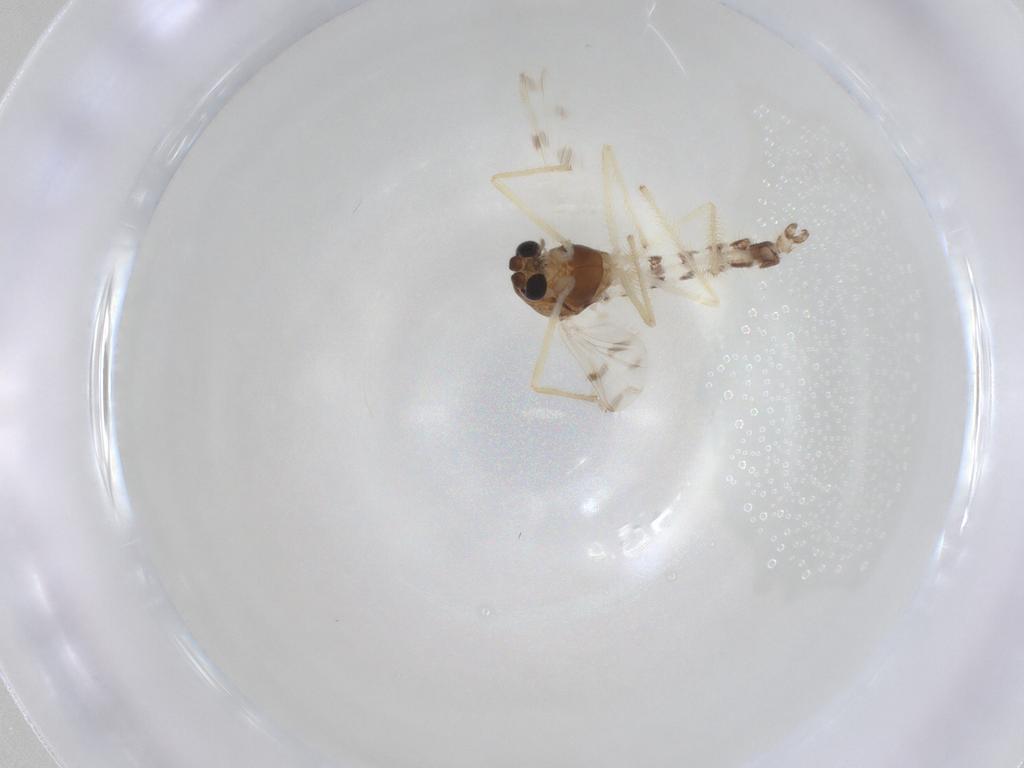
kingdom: Animalia
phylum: Arthropoda
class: Insecta
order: Diptera
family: Chironomidae
